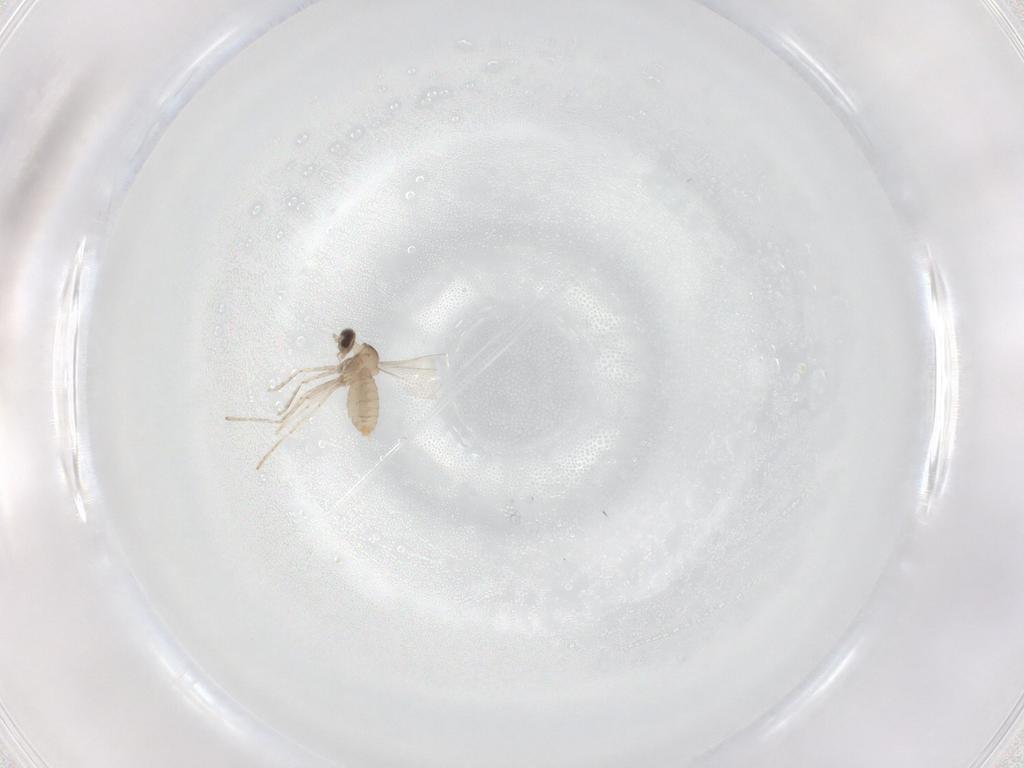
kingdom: Animalia
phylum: Arthropoda
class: Insecta
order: Diptera
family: Cecidomyiidae
